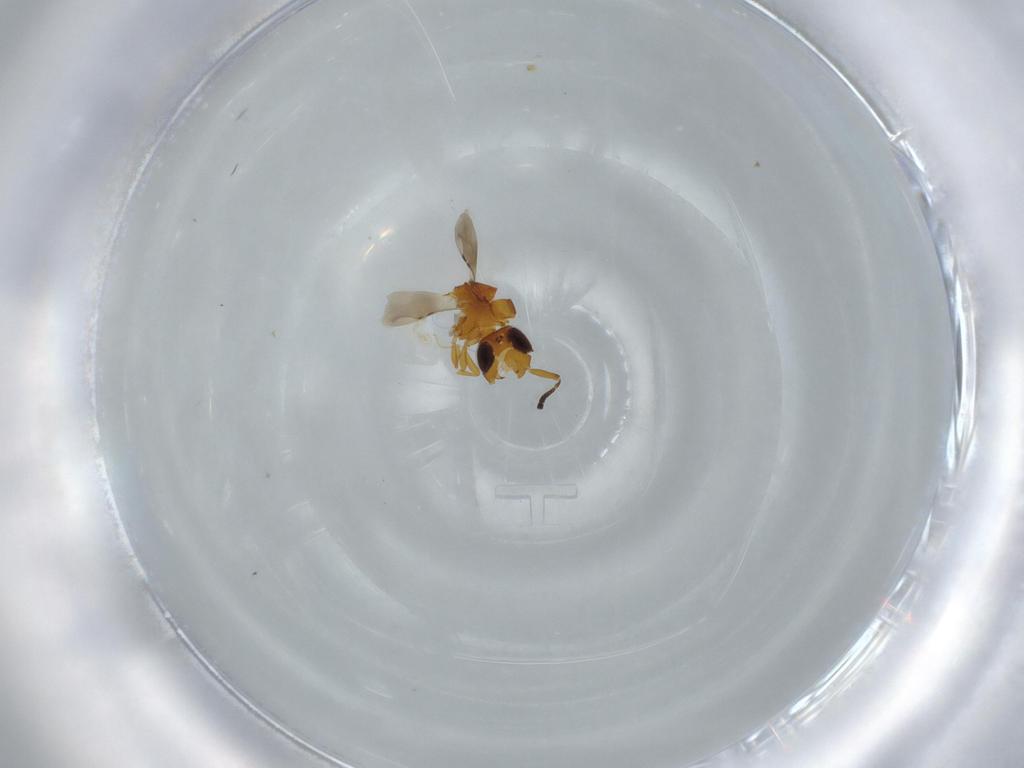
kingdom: Animalia
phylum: Arthropoda
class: Insecta
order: Hymenoptera
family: Ceraphronidae
